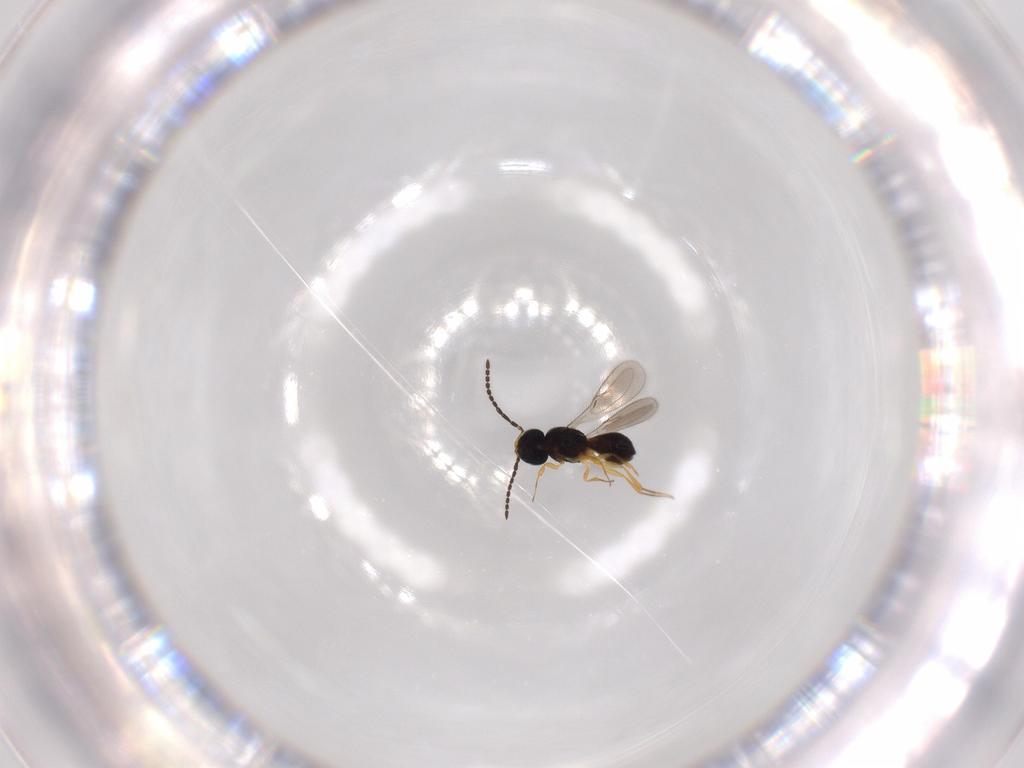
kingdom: Animalia
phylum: Arthropoda
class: Insecta
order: Hymenoptera
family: Scelionidae
